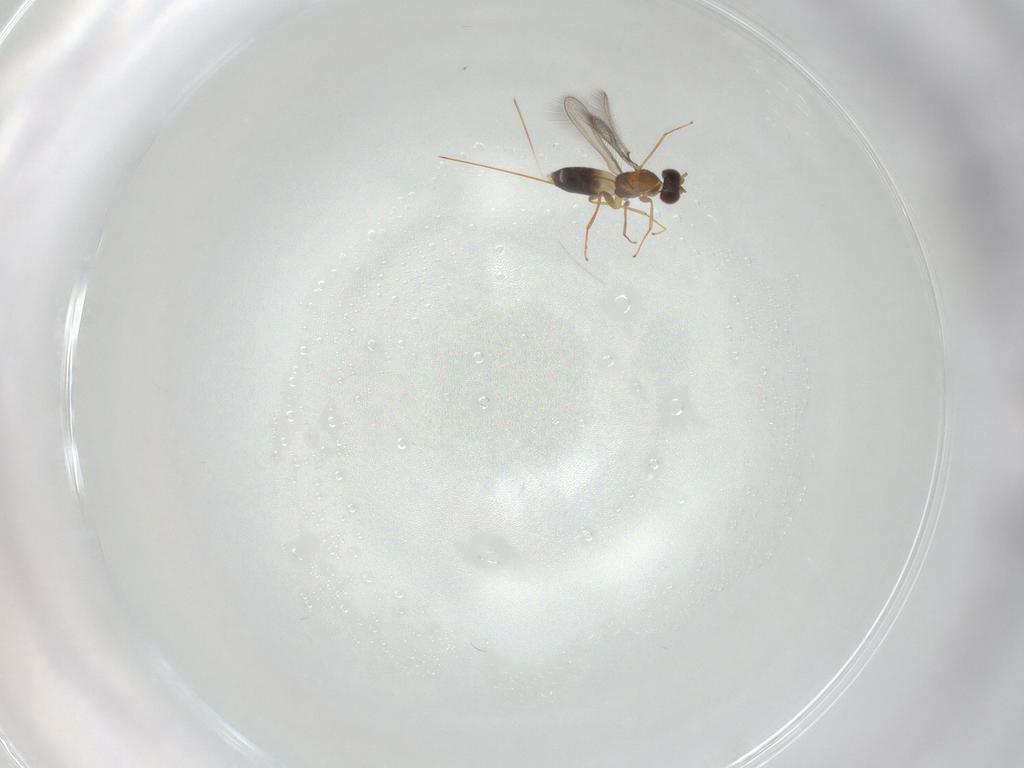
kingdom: Animalia
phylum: Arthropoda
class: Insecta
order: Hymenoptera
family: Mymaridae
